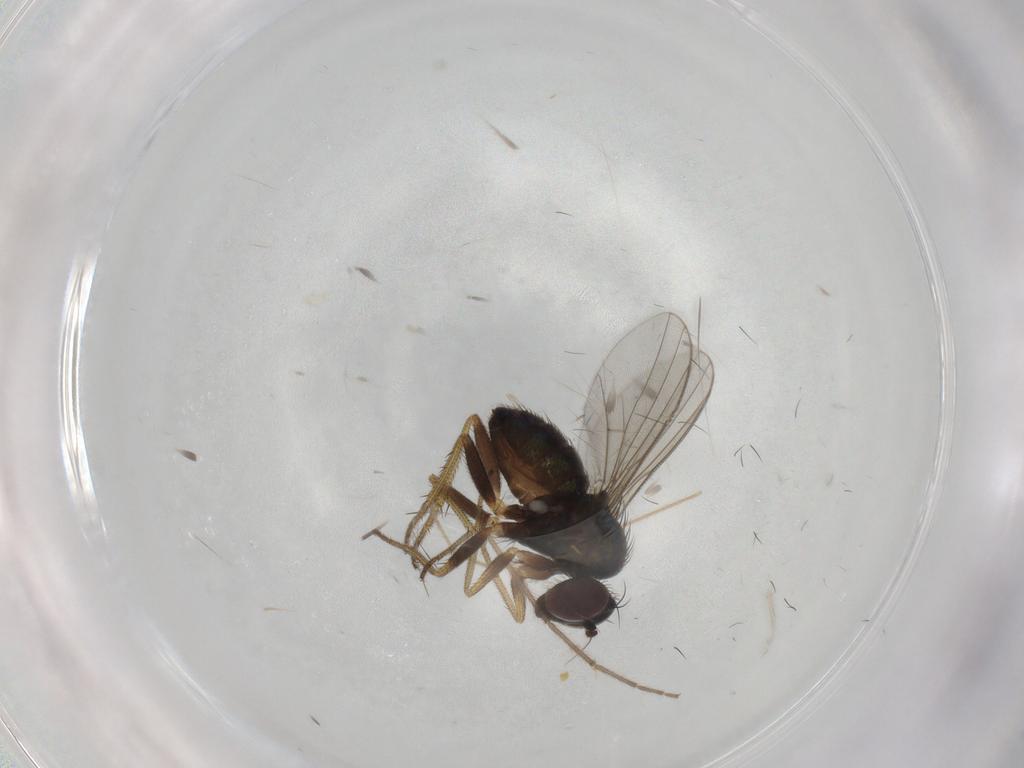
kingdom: Animalia
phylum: Arthropoda
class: Insecta
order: Diptera
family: Dolichopodidae
